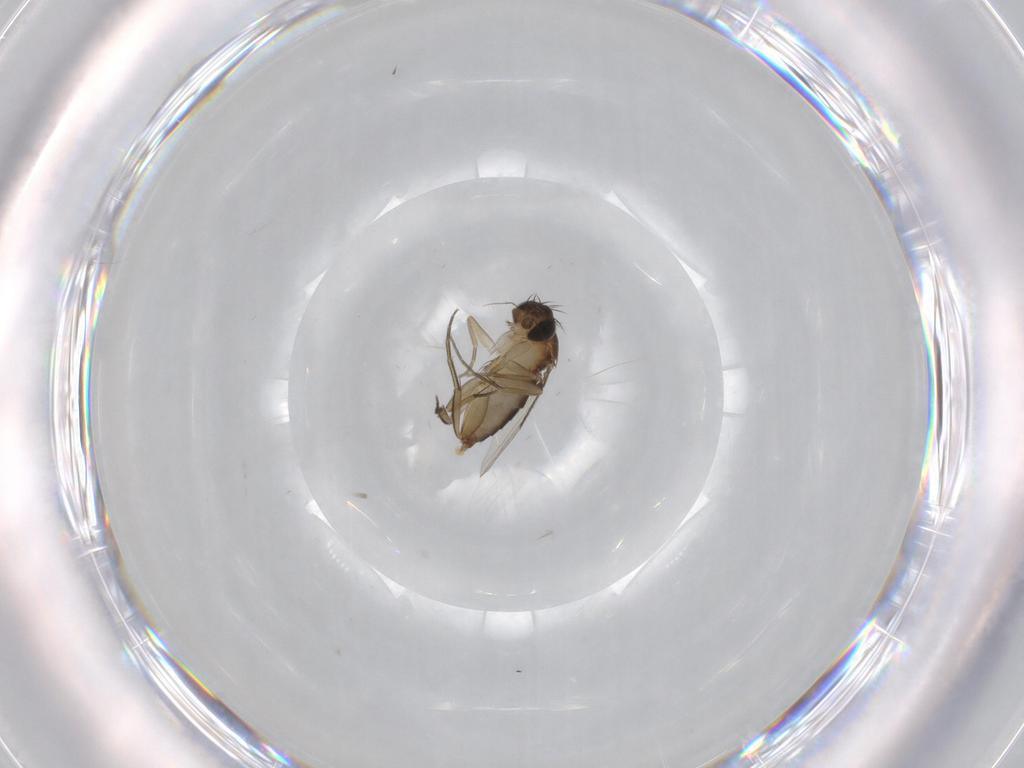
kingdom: Animalia
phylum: Arthropoda
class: Insecta
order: Diptera
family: Phoridae
